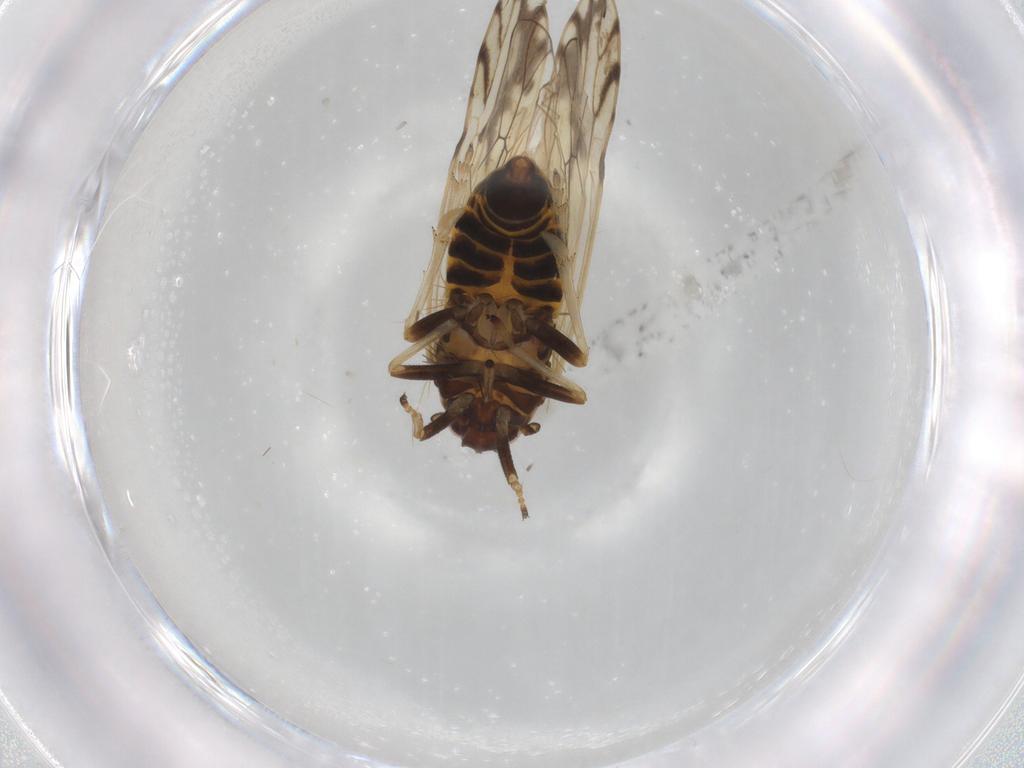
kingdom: Animalia
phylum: Arthropoda
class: Insecta
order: Hemiptera
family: Delphacidae
